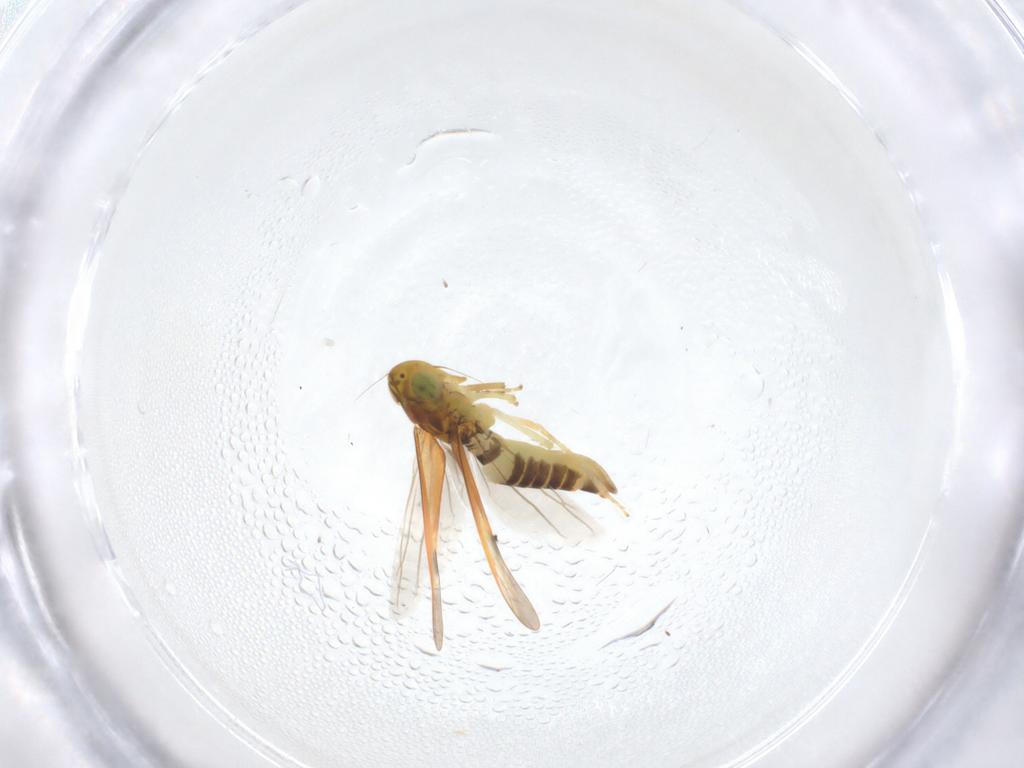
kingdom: Animalia
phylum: Arthropoda
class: Insecta
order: Hemiptera
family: Cicadellidae
